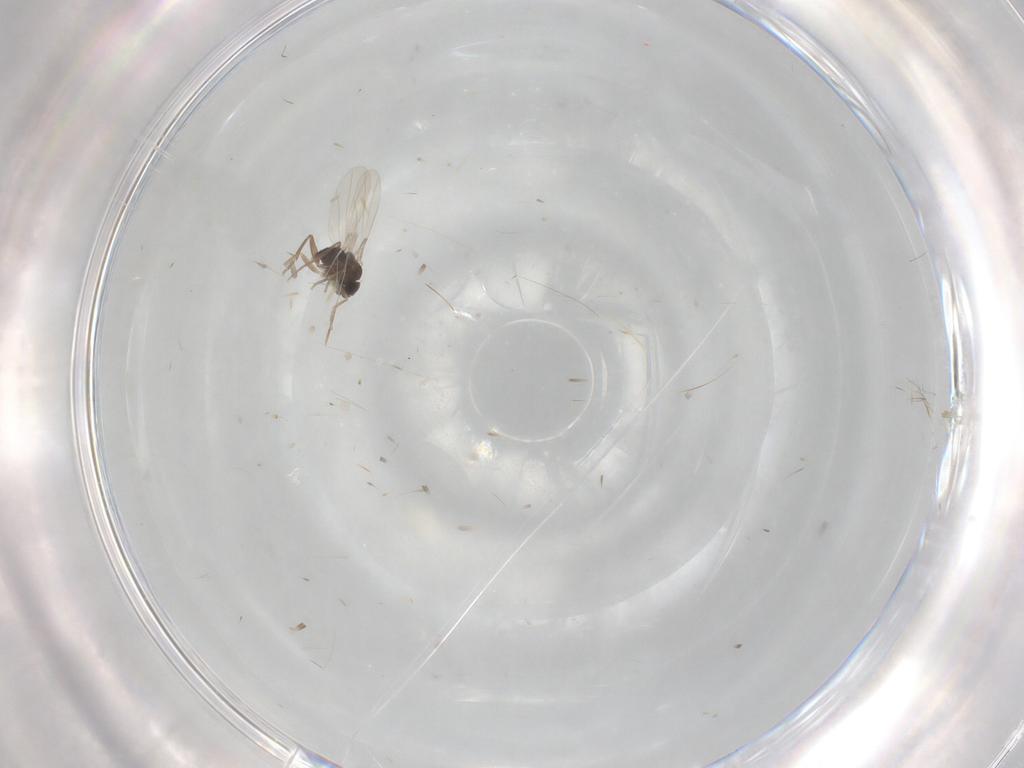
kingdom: Animalia
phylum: Arthropoda
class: Insecta
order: Diptera
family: Phoridae
